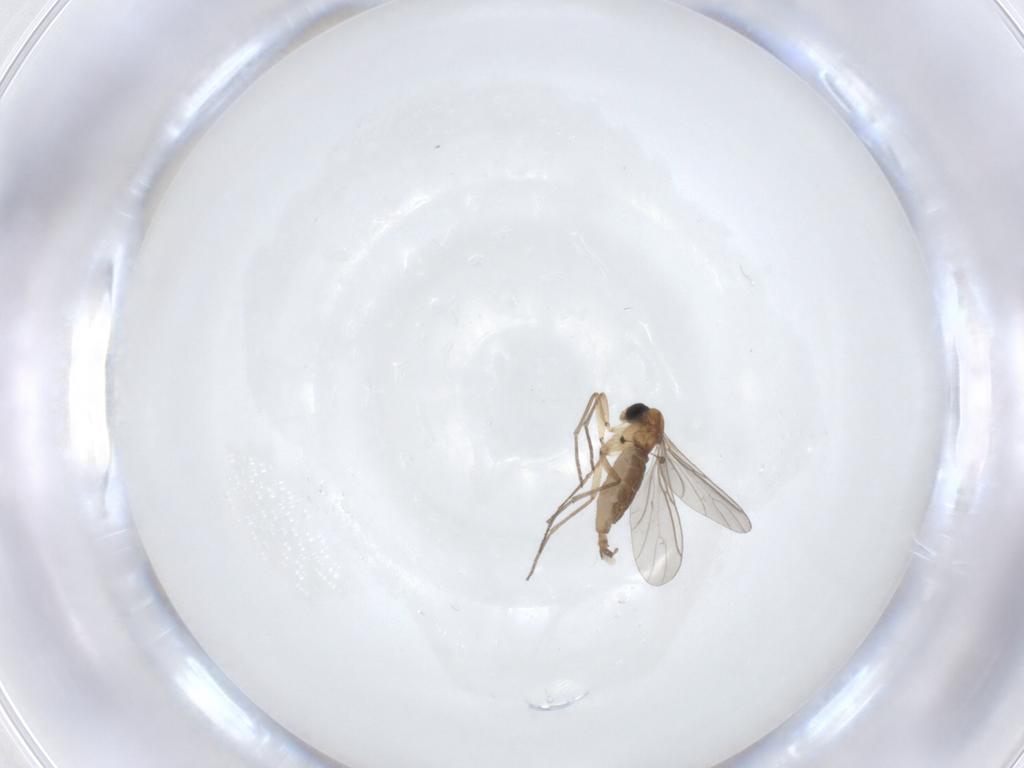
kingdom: Animalia
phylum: Arthropoda
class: Insecta
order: Diptera
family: Sciaridae
